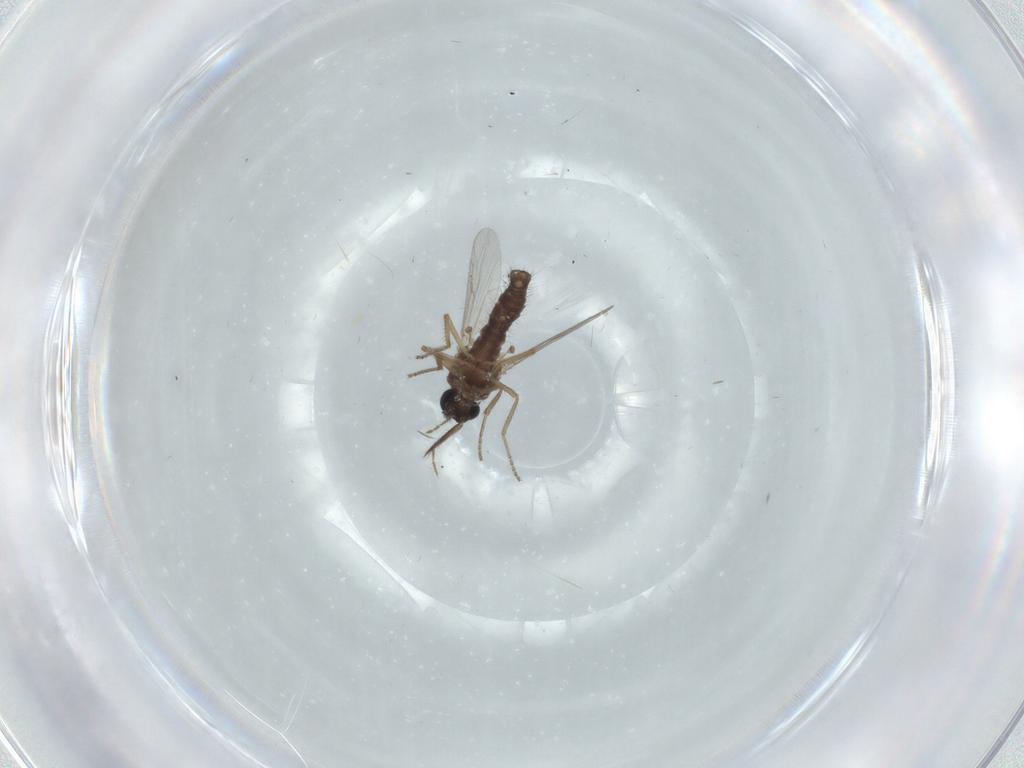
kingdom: Animalia
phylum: Arthropoda
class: Insecta
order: Diptera
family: Ceratopogonidae
